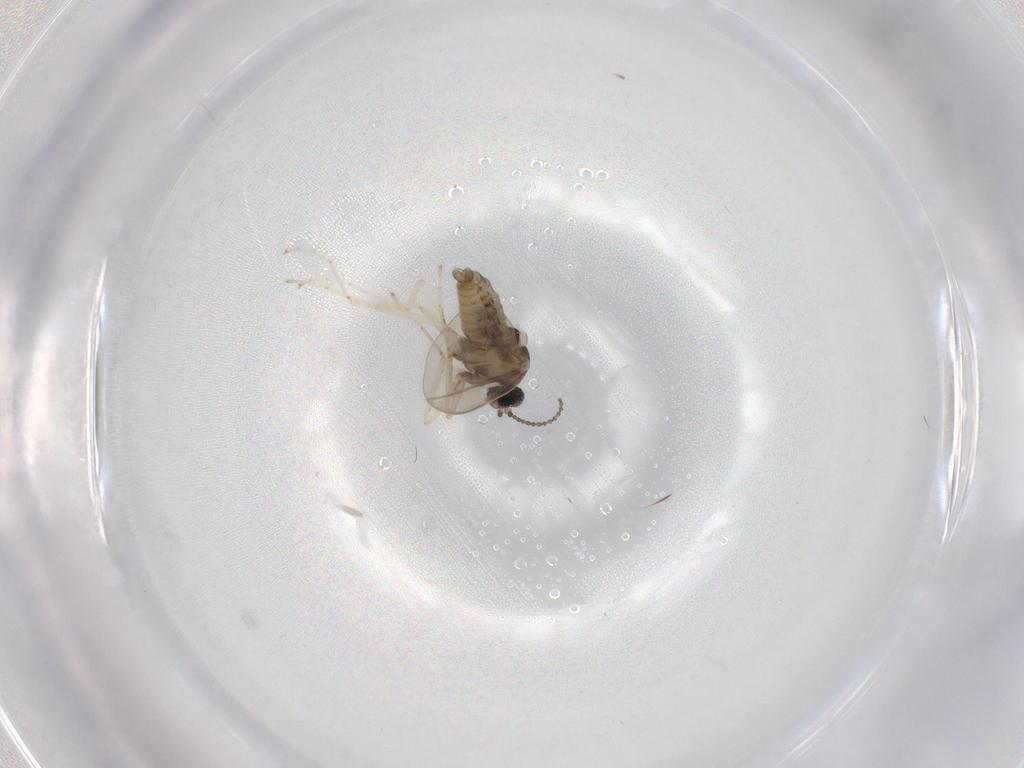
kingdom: Animalia
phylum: Arthropoda
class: Insecta
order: Diptera
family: Cecidomyiidae
